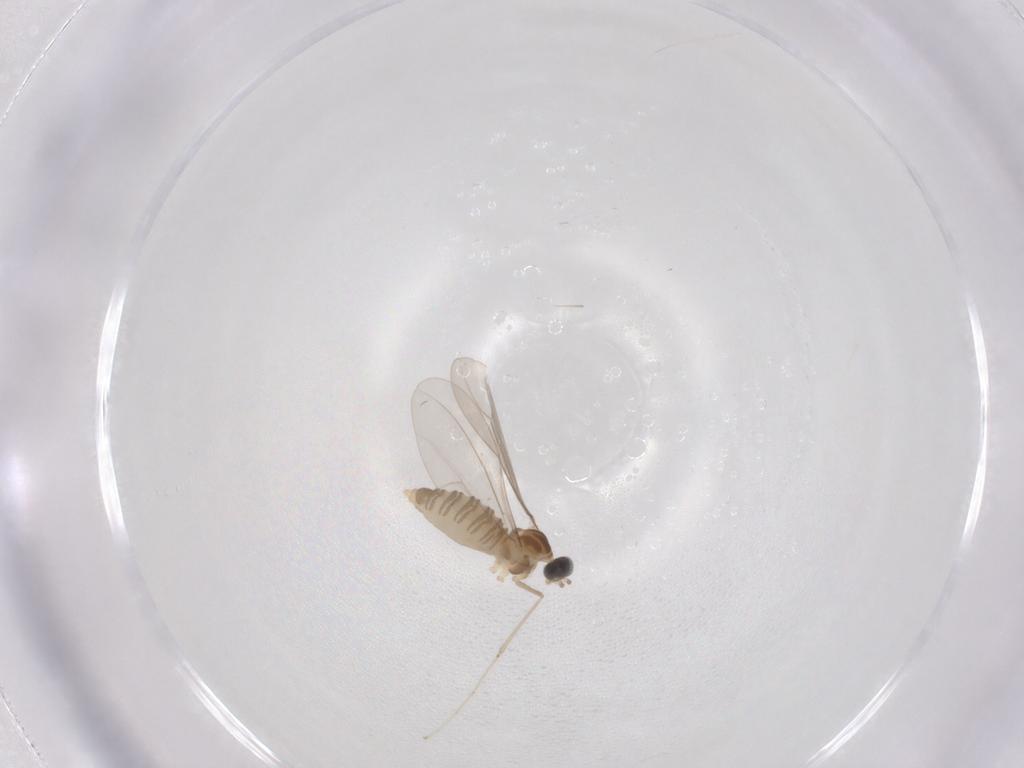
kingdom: Animalia
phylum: Arthropoda
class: Insecta
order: Diptera
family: Cecidomyiidae
